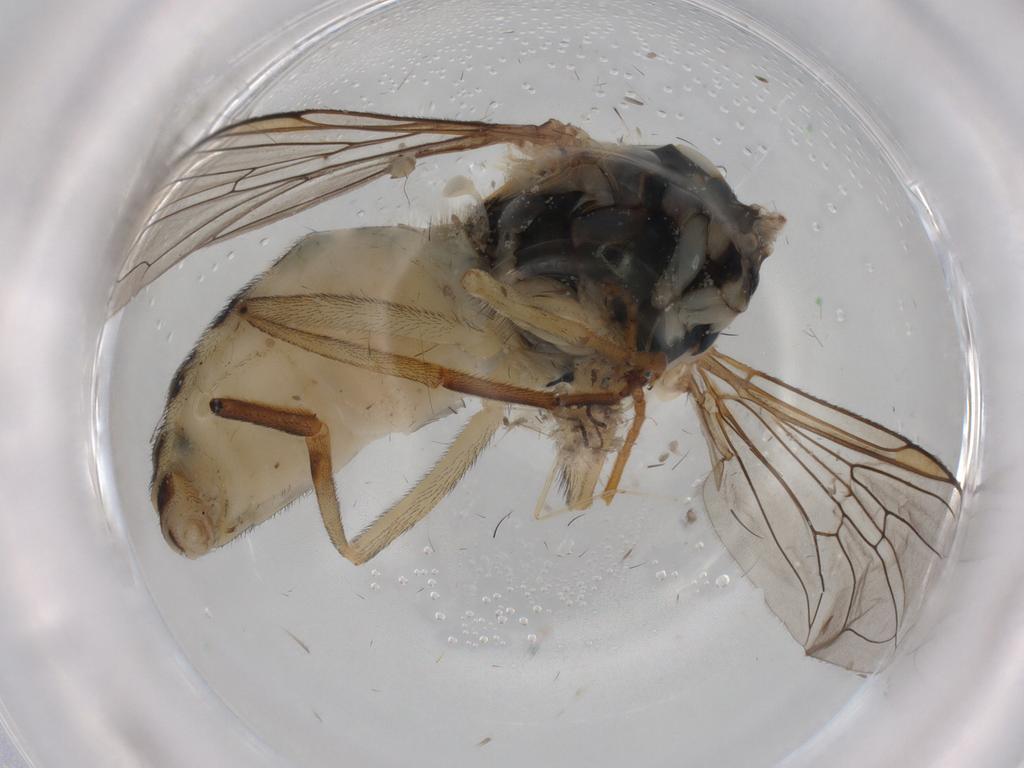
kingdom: Animalia
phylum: Arthropoda
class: Insecta
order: Diptera
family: Syrphidae
